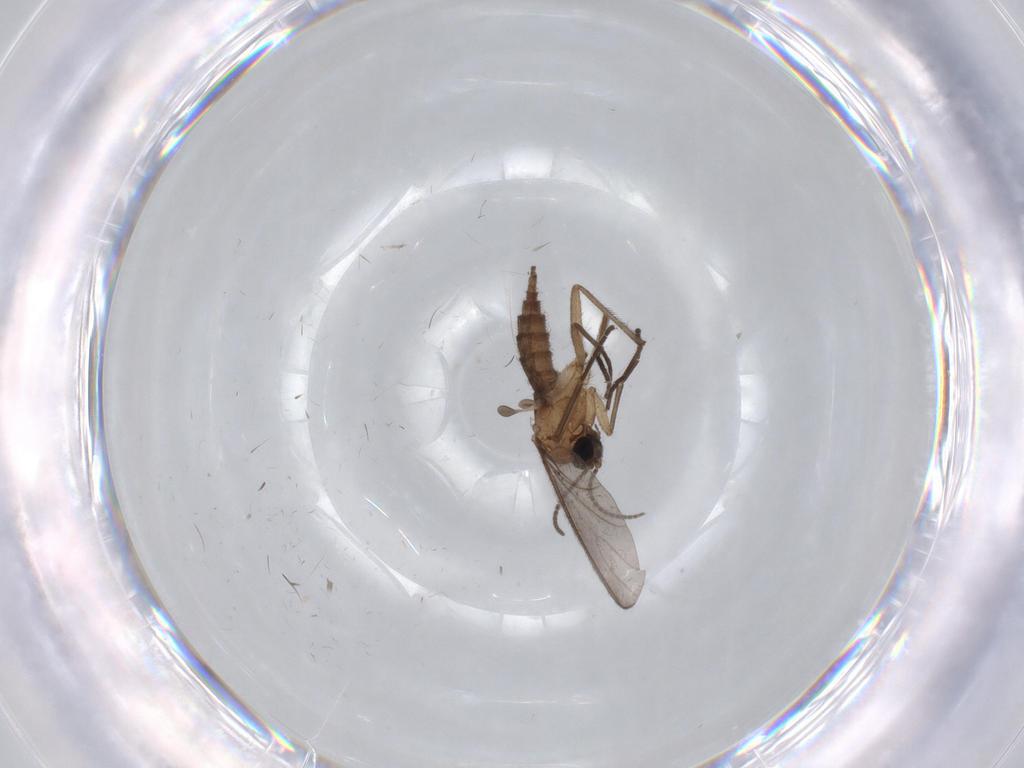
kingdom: Animalia
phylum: Arthropoda
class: Insecta
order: Diptera
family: Sciaridae
